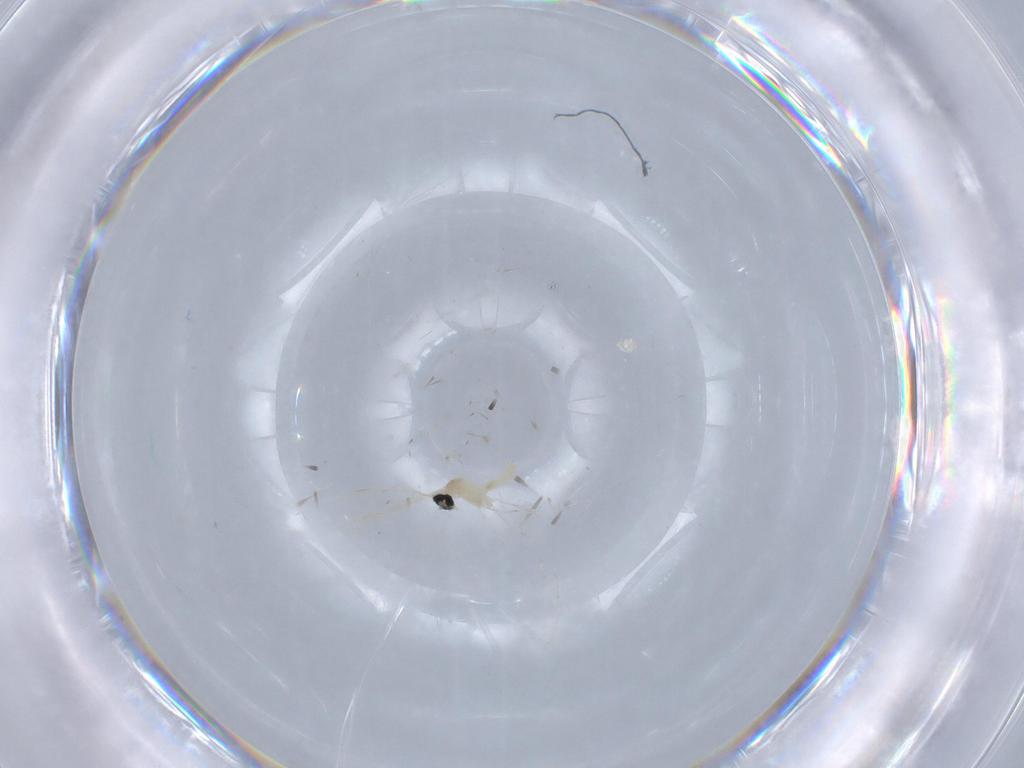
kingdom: Animalia
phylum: Arthropoda
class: Insecta
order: Diptera
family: Cecidomyiidae
